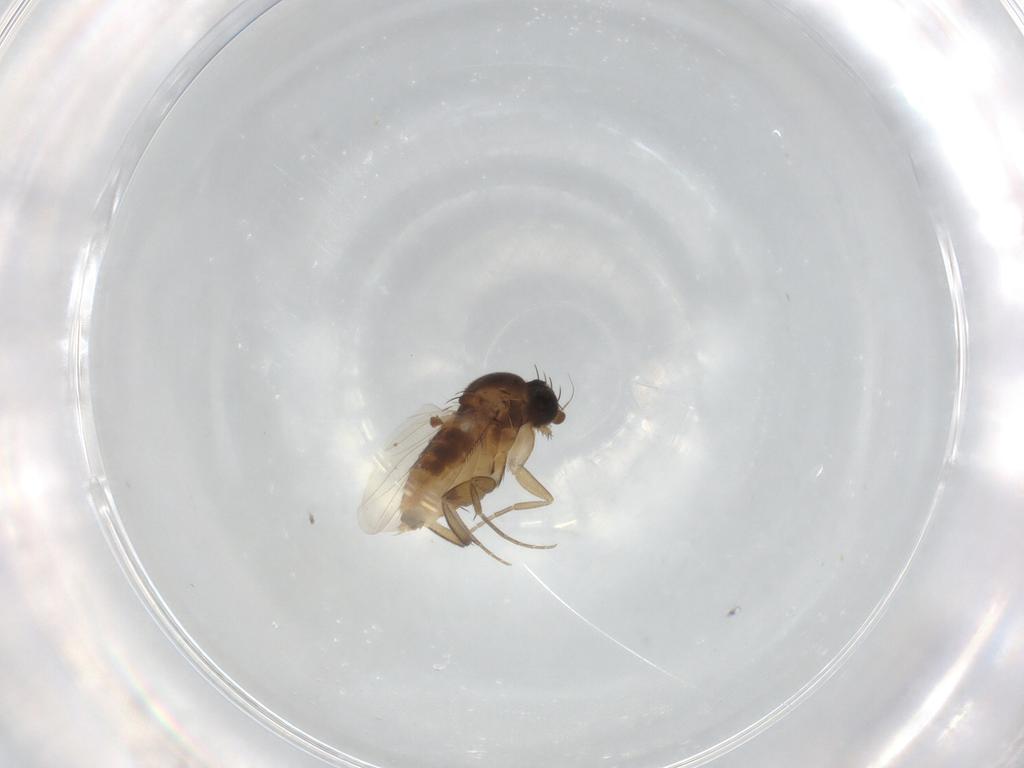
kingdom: Animalia
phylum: Arthropoda
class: Insecta
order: Diptera
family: Phoridae
